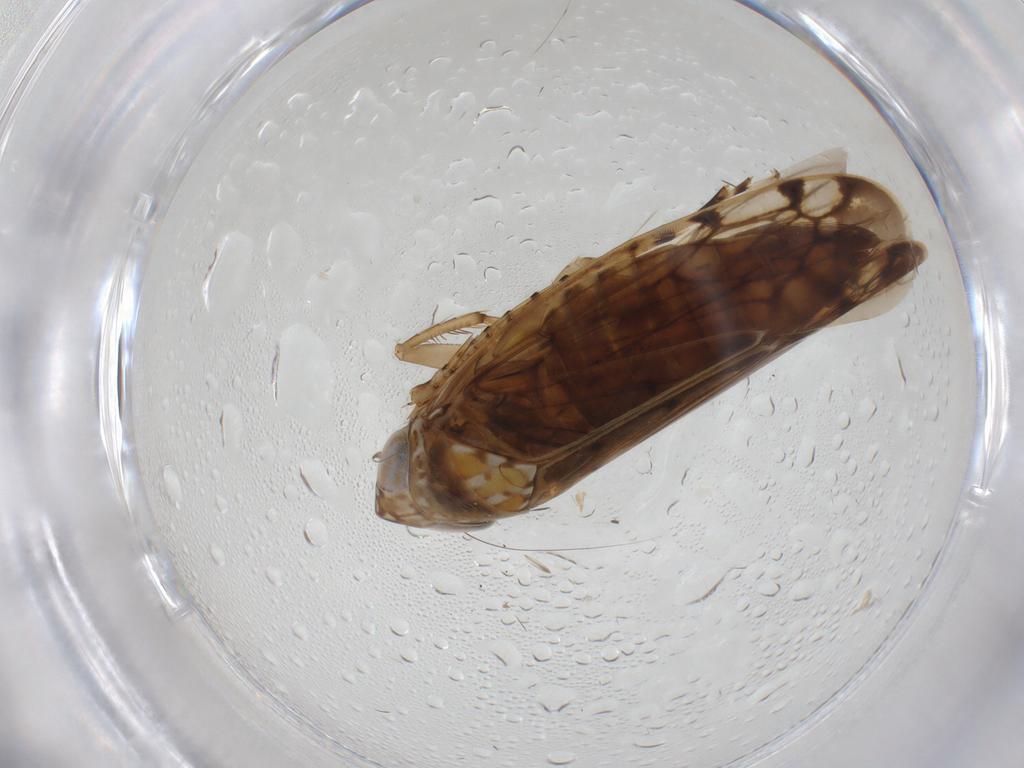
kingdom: Animalia
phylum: Arthropoda
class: Insecta
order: Hemiptera
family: Cicadellidae
